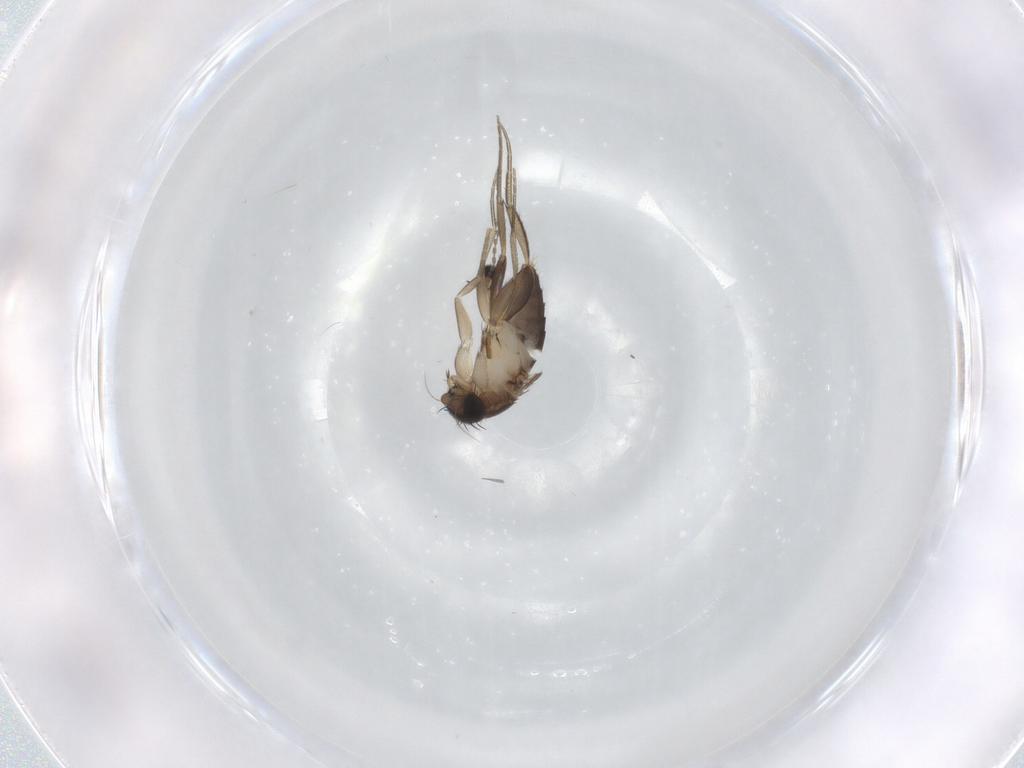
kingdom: Animalia
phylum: Arthropoda
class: Insecta
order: Diptera
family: Phoridae
